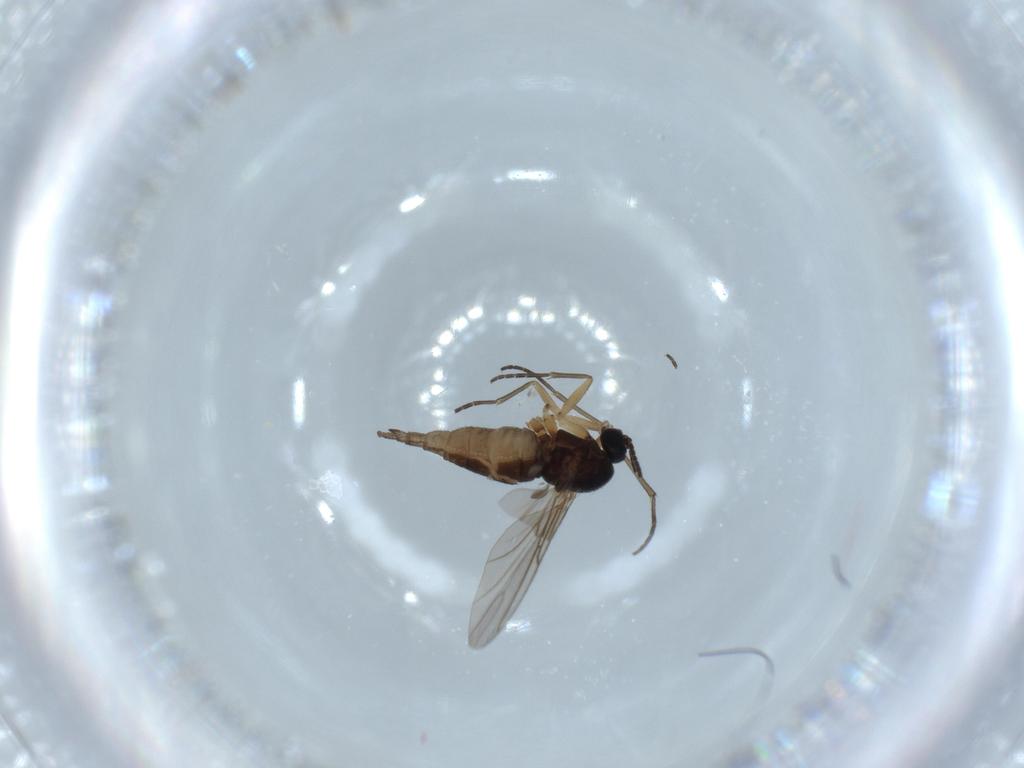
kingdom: Animalia
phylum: Arthropoda
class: Insecta
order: Diptera
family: Sciaridae
